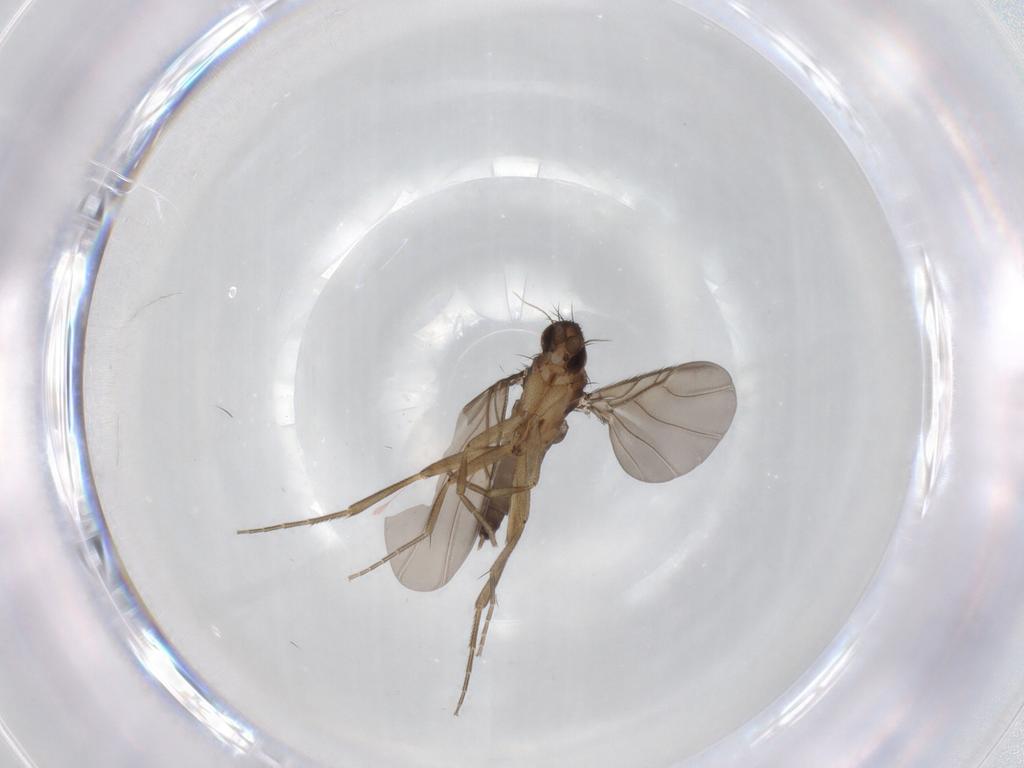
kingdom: Animalia
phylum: Arthropoda
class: Insecta
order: Diptera
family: Phoridae
